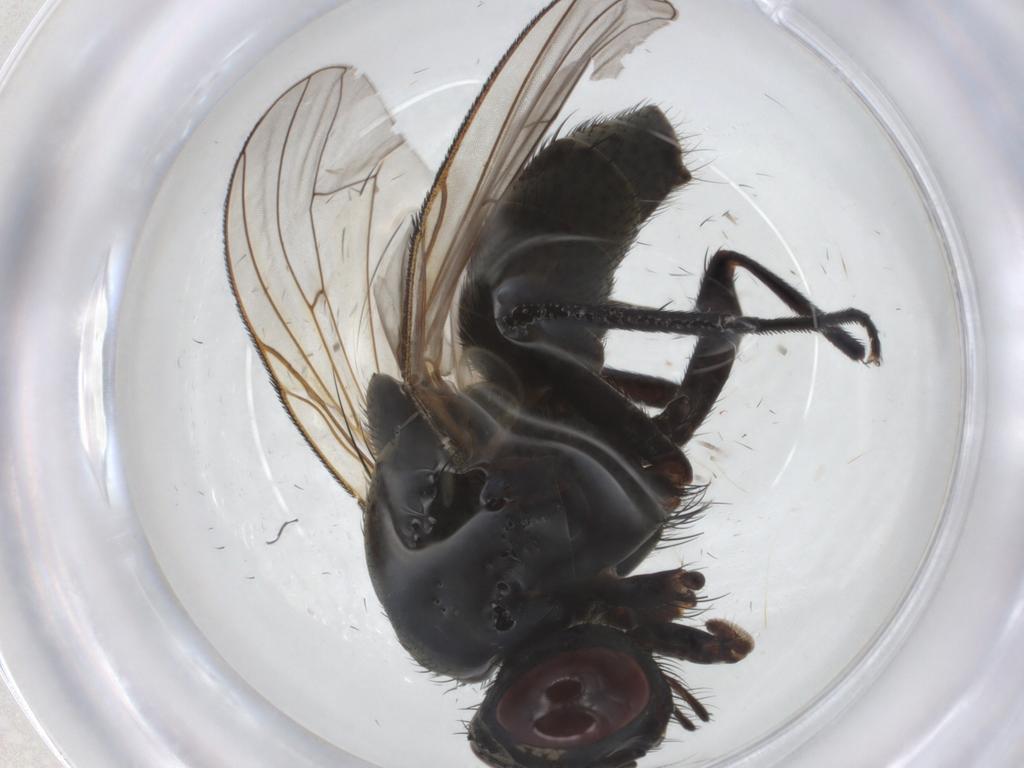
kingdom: Animalia
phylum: Arthropoda
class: Insecta
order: Diptera
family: Muscidae
